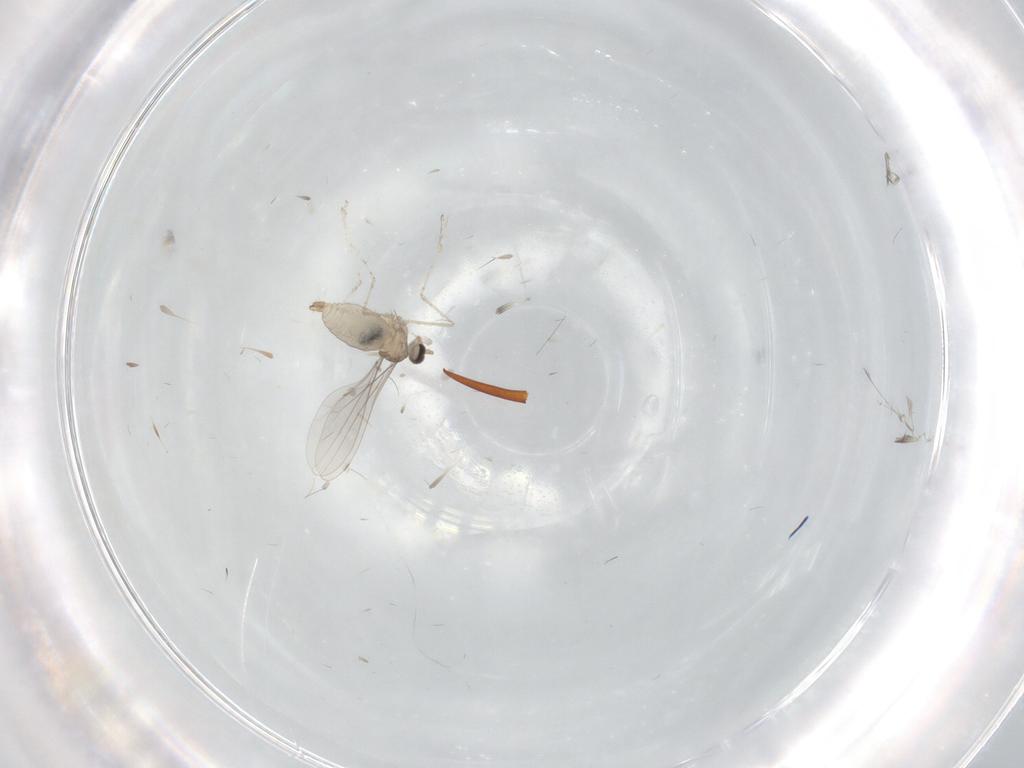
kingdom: Animalia
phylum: Arthropoda
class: Insecta
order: Diptera
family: Cecidomyiidae
